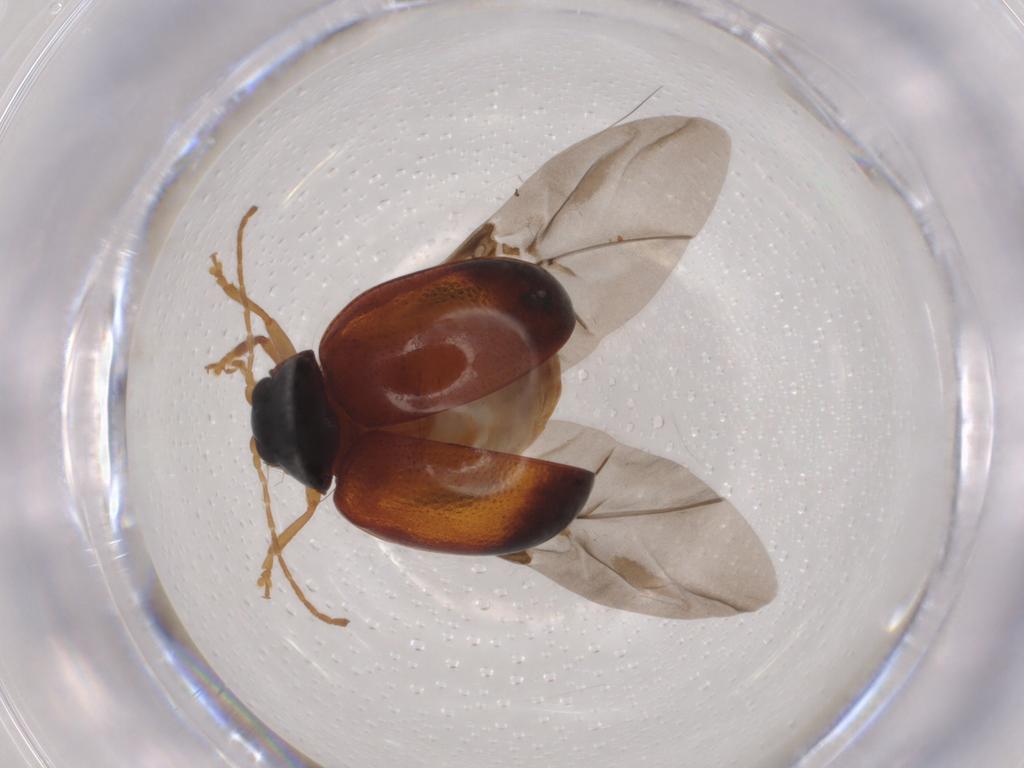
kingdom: Animalia
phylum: Arthropoda
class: Insecta
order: Coleoptera
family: Chrysomelidae
